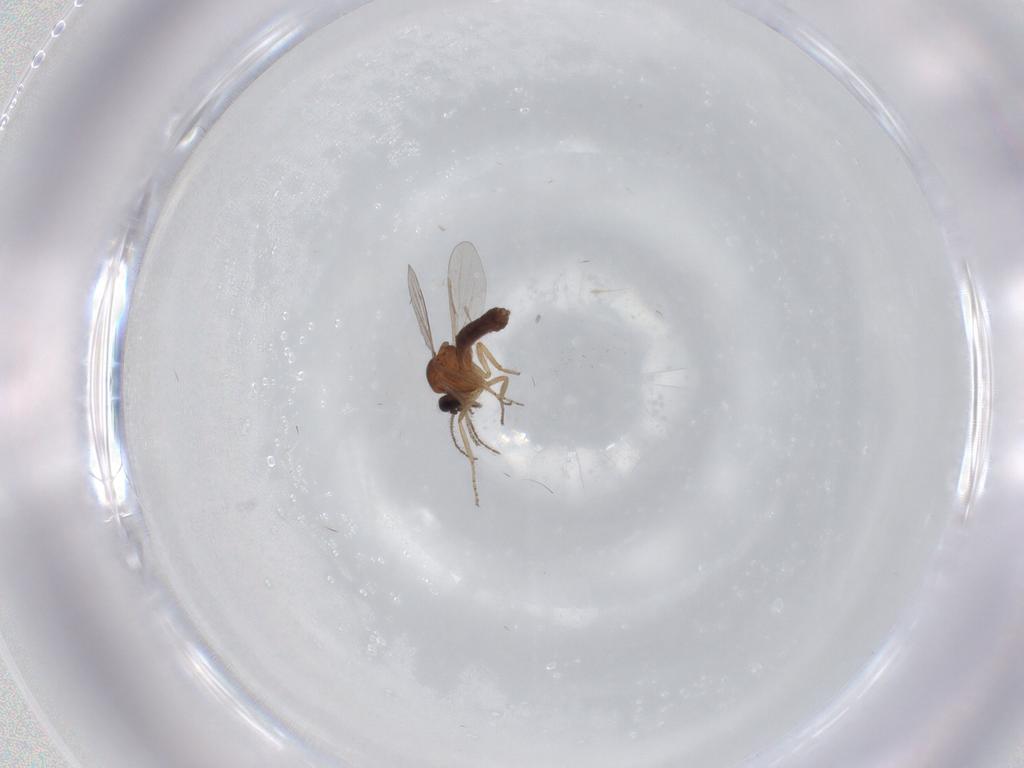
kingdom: Animalia
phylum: Arthropoda
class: Insecta
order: Diptera
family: Ceratopogonidae
